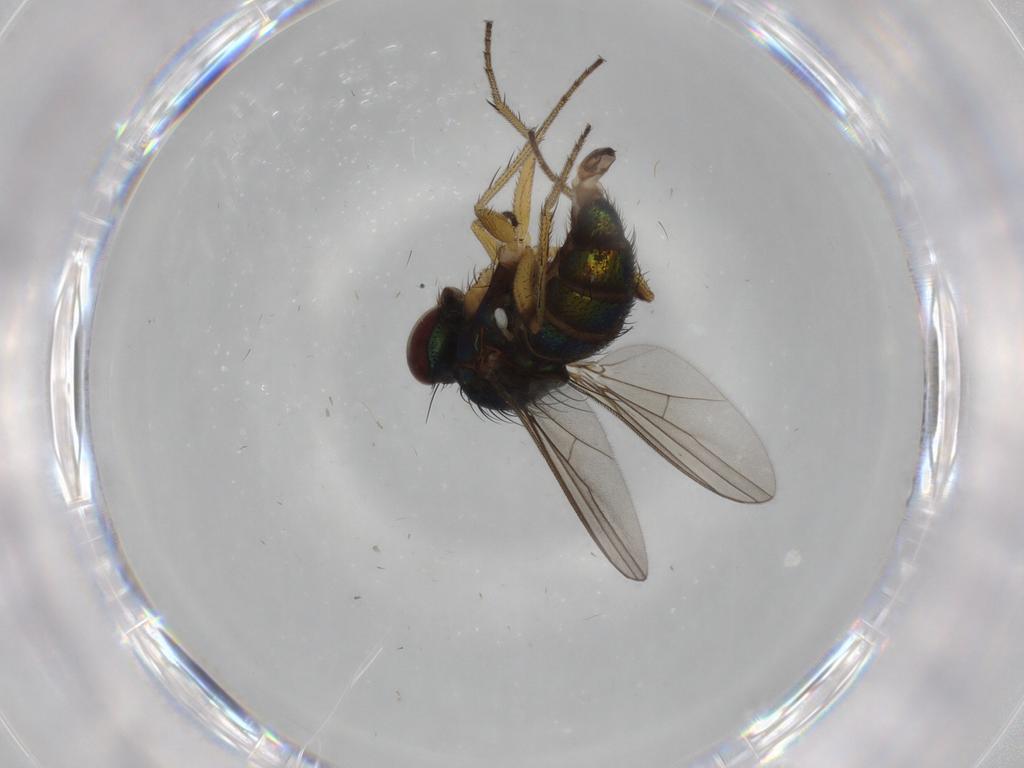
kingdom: Animalia
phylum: Arthropoda
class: Insecta
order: Diptera
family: Dolichopodidae
